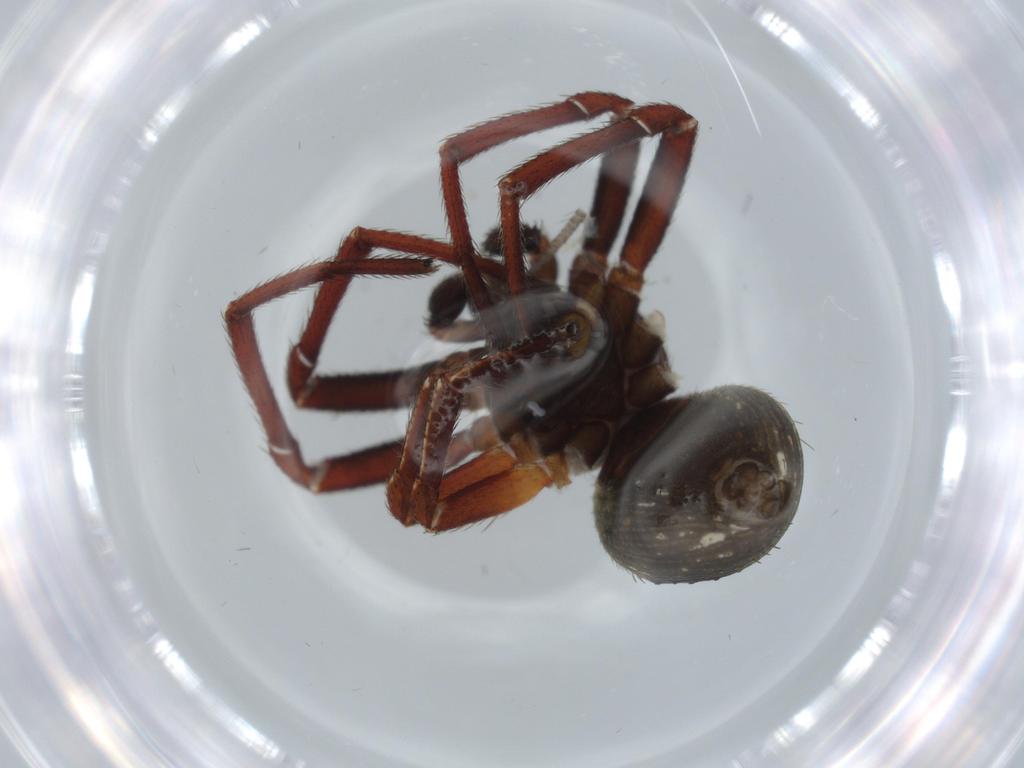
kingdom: Animalia
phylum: Arthropoda
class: Arachnida
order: Araneae
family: Thomisidae
